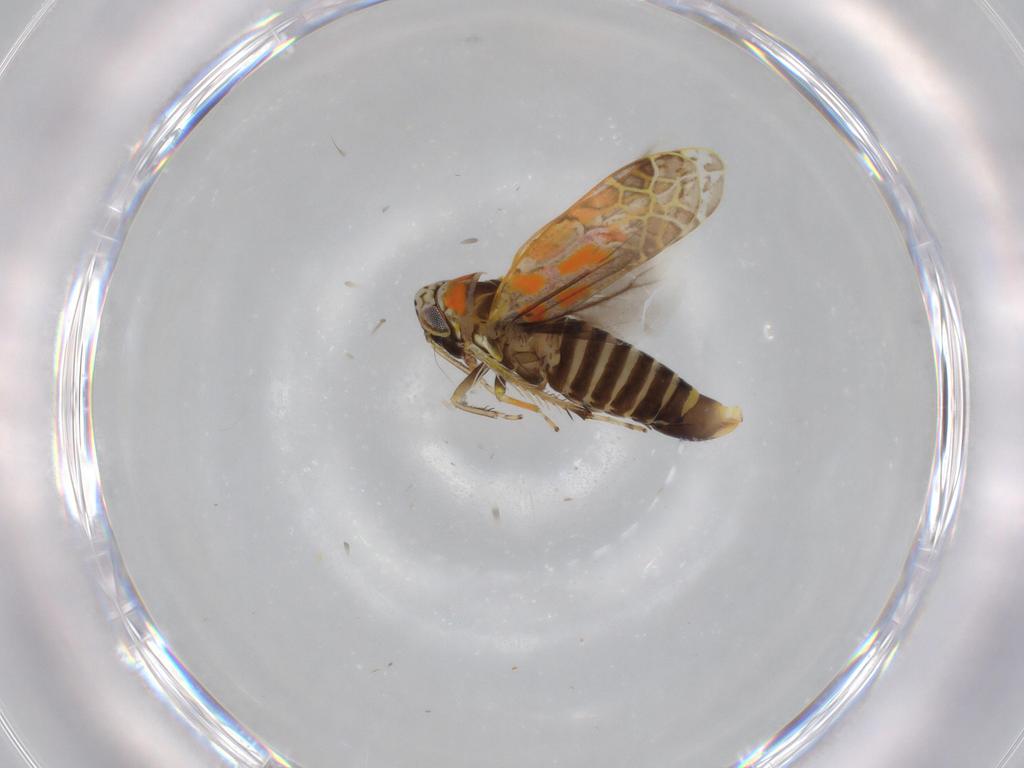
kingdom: Animalia
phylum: Arthropoda
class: Insecta
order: Hemiptera
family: Cicadellidae
